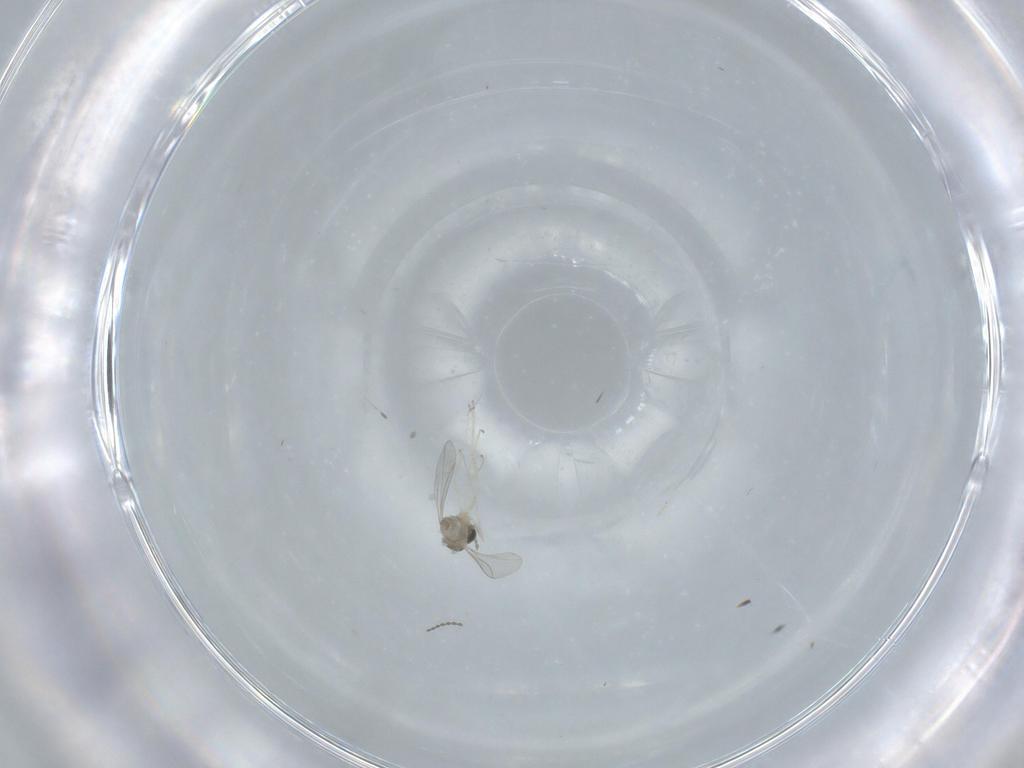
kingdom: Animalia
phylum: Arthropoda
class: Insecta
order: Diptera
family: Cecidomyiidae
